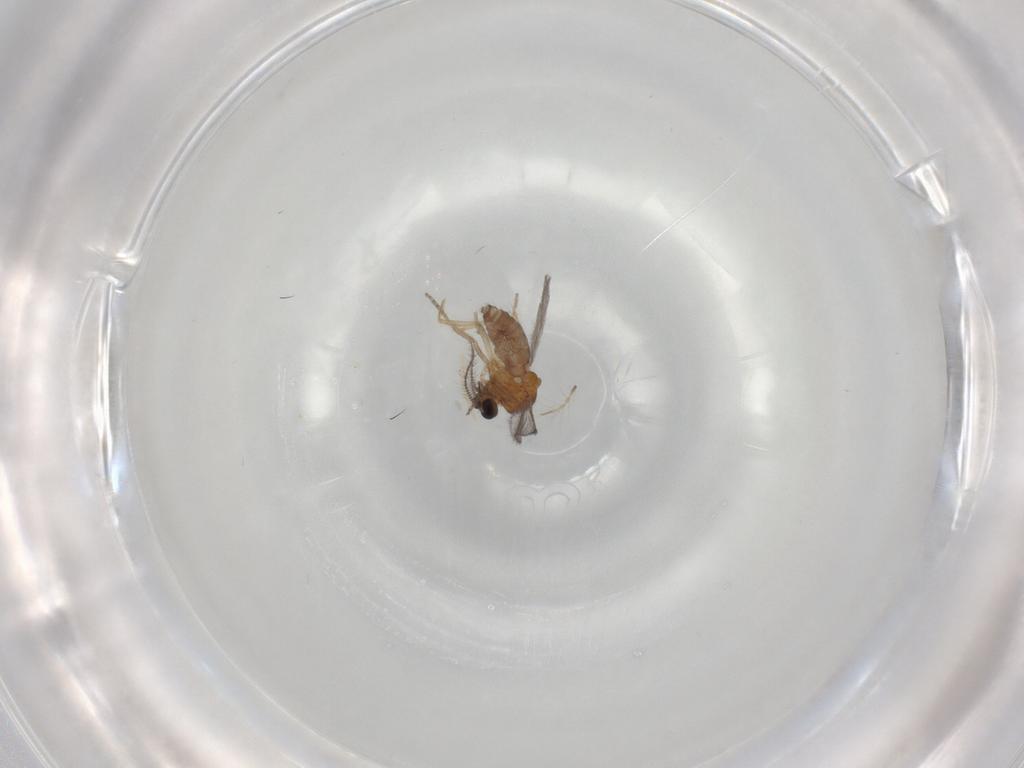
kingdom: Animalia
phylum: Arthropoda
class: Insecta
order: Diptera
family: Ceratopogonidae
